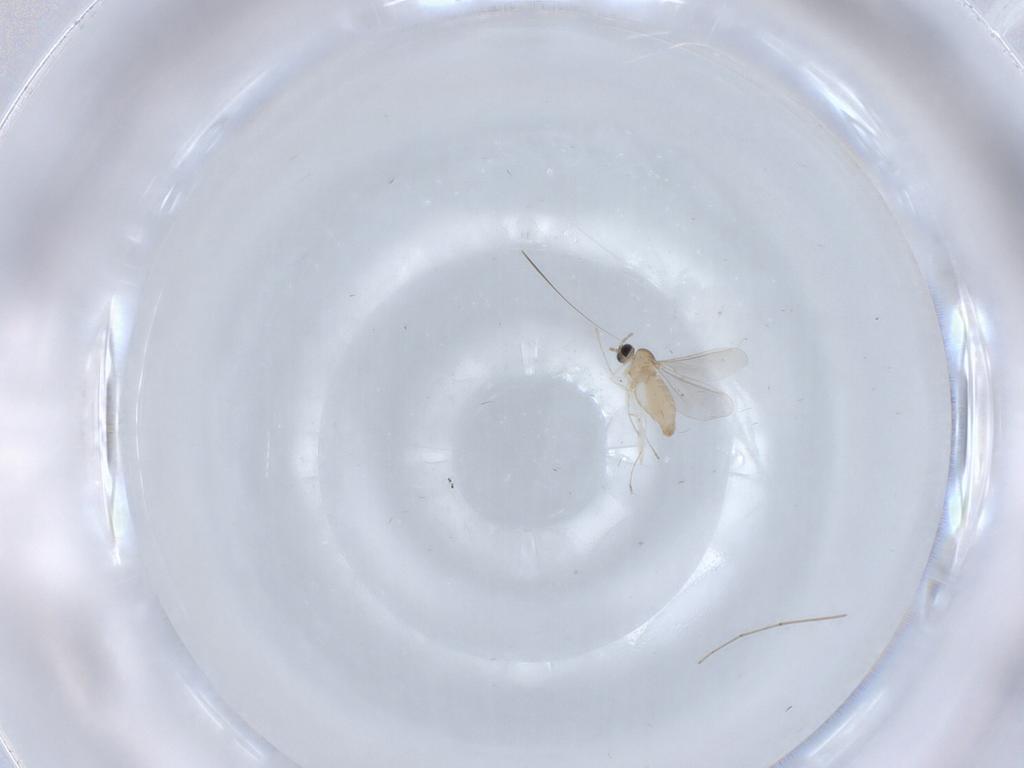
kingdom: Animalia
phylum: Arthropoda
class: Insecta
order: Diptera
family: Cecidomyiidae
